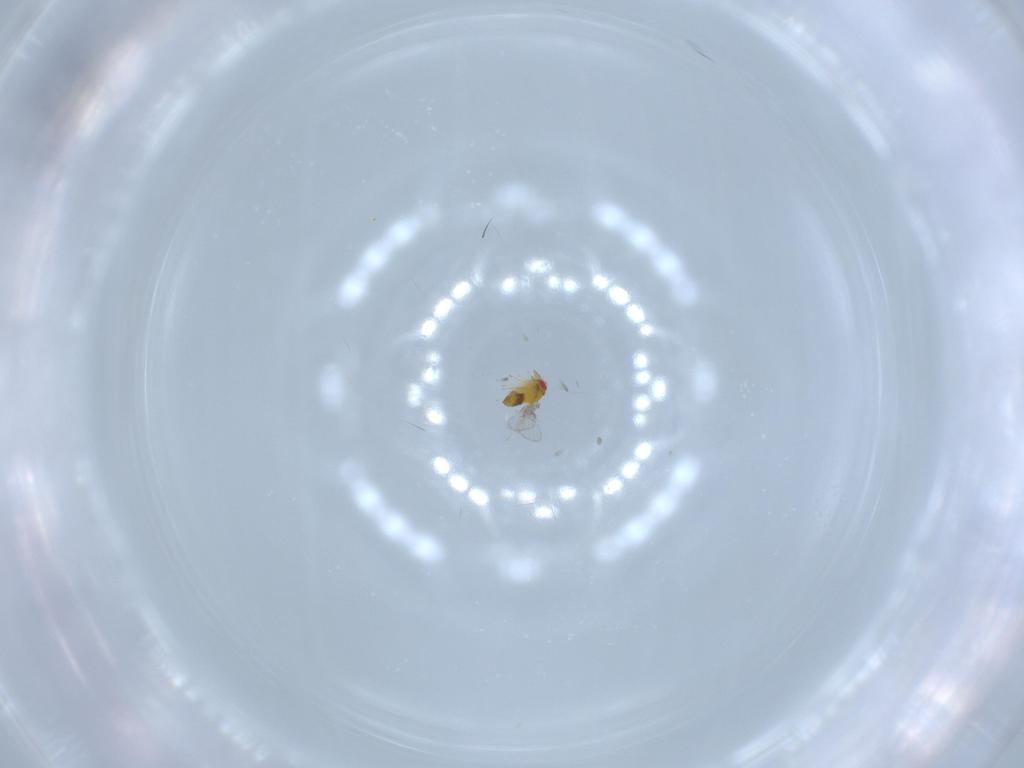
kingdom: Animalia
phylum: Arthropoda
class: Insecta
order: Hymenoptera
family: Trichogrammatidae
